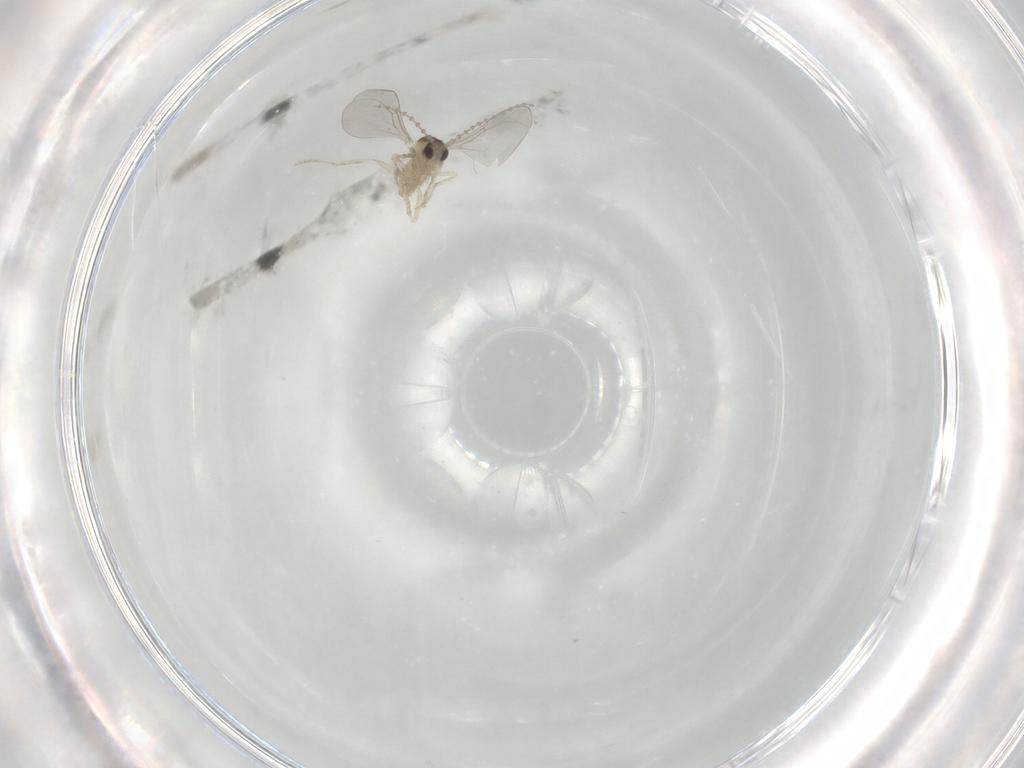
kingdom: Animalia
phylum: Arthropoda
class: Insecta
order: Diptera
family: Cecidomyiidae
